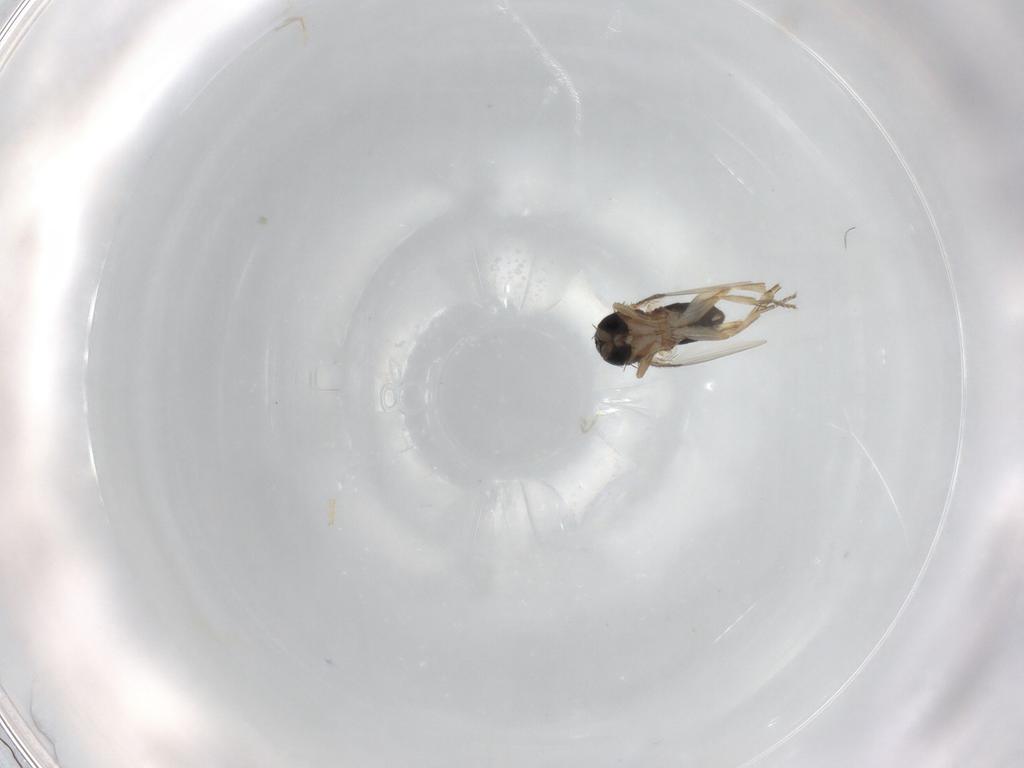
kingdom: Animalia
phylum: Arthropoda
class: Insecta
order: Diptera
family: Phoridae
